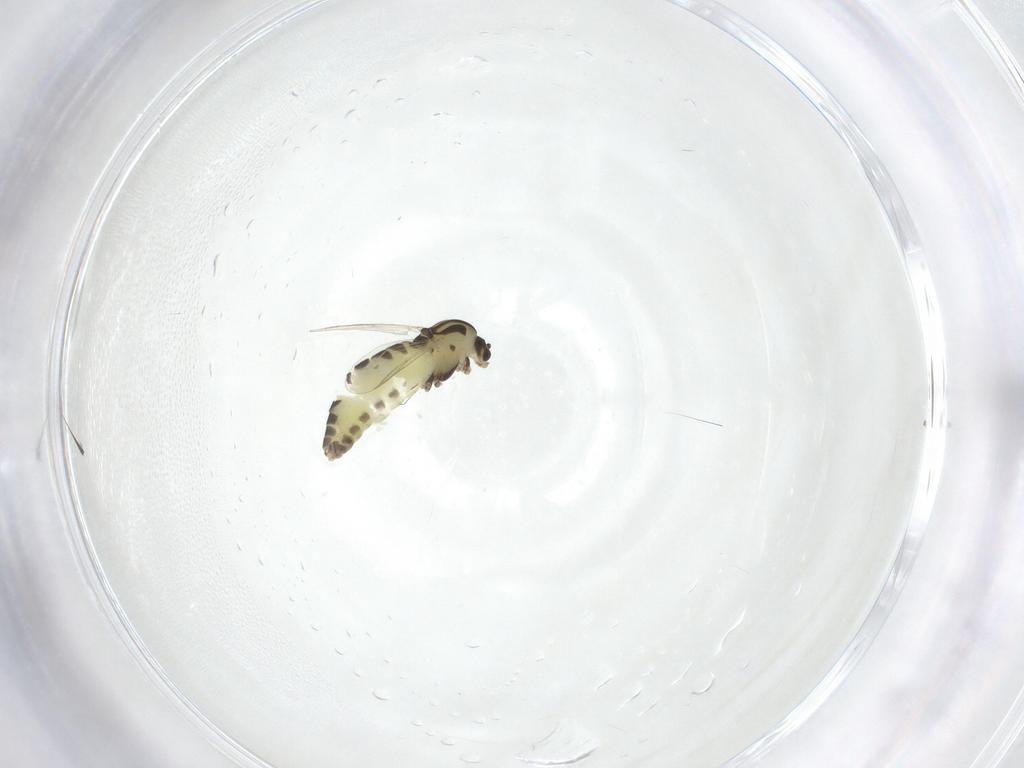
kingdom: Animalia
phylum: Arthropoda
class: Insecta
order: Diptera
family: Chironomidae
